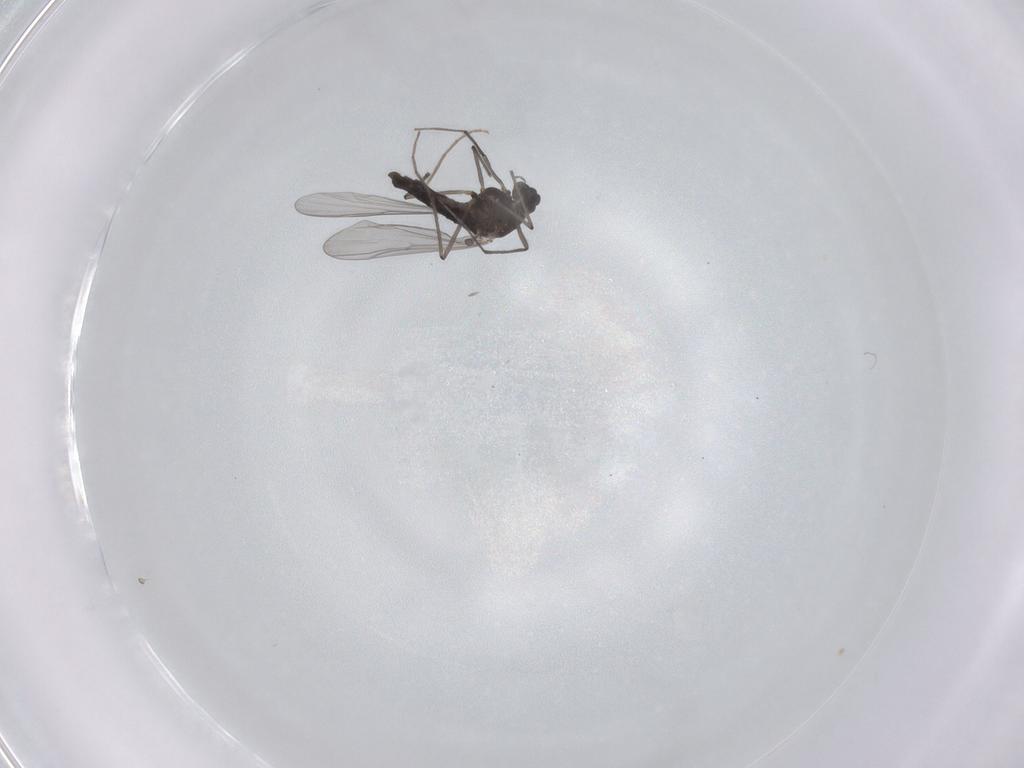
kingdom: Animalia
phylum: Arthropoda
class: Insecta
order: Diptera
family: Chironomidae
